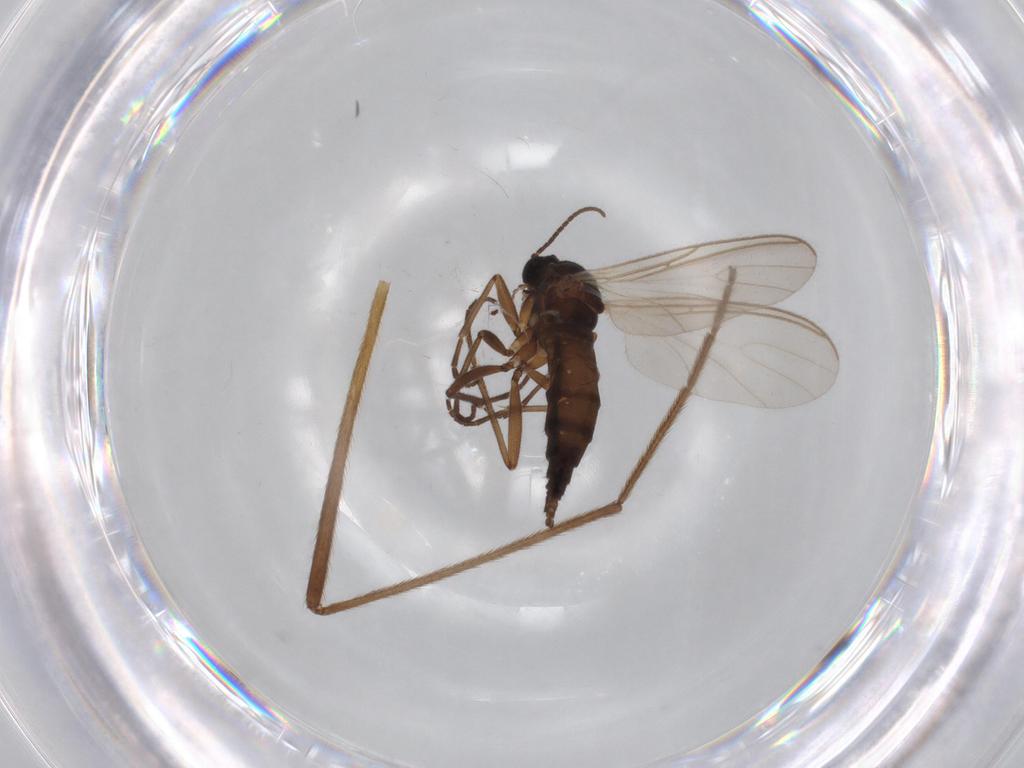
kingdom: Animalia
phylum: Arthropoda
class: Insecta
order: Diptera
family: Sciaridae
